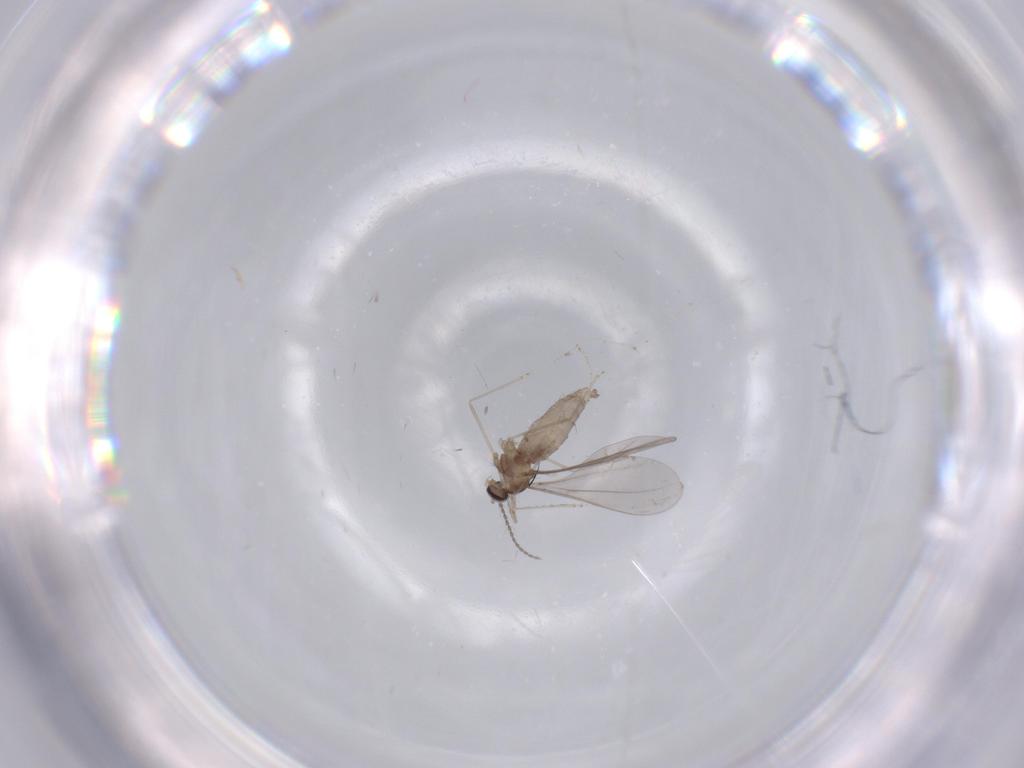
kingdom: Animalia
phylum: Arthropoda
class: Insecta
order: Diptera
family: Cecidomyiidae
